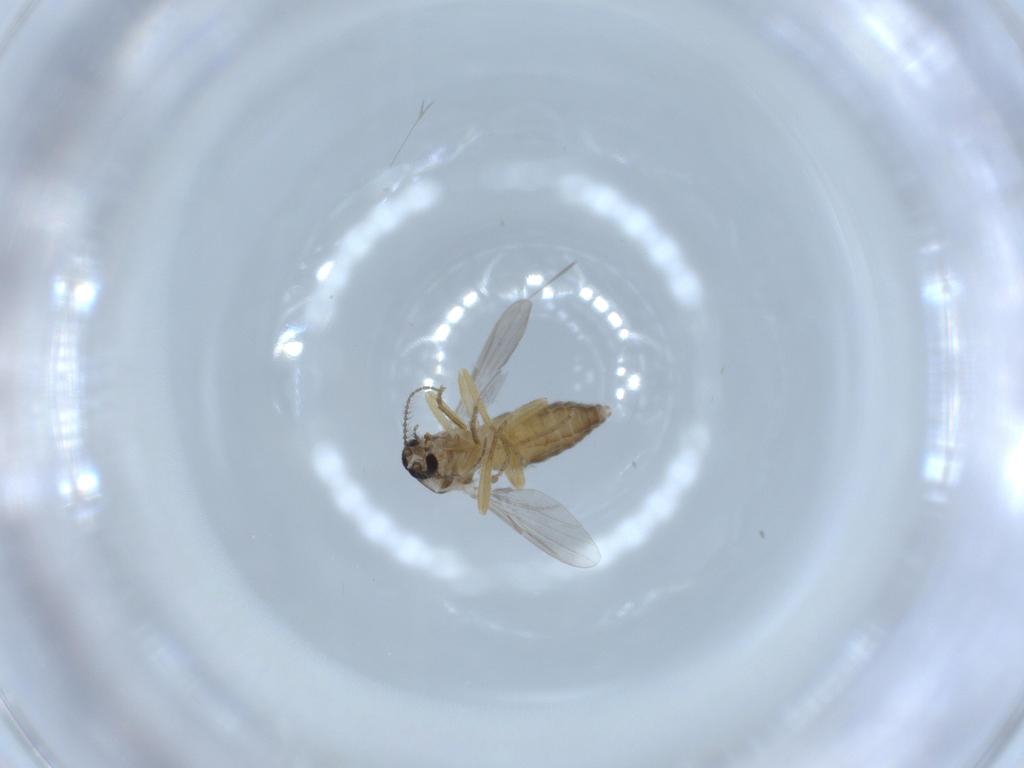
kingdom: Animalia
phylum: Arthropoda
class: Insecta
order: Diptera
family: Ceratopogonidae
